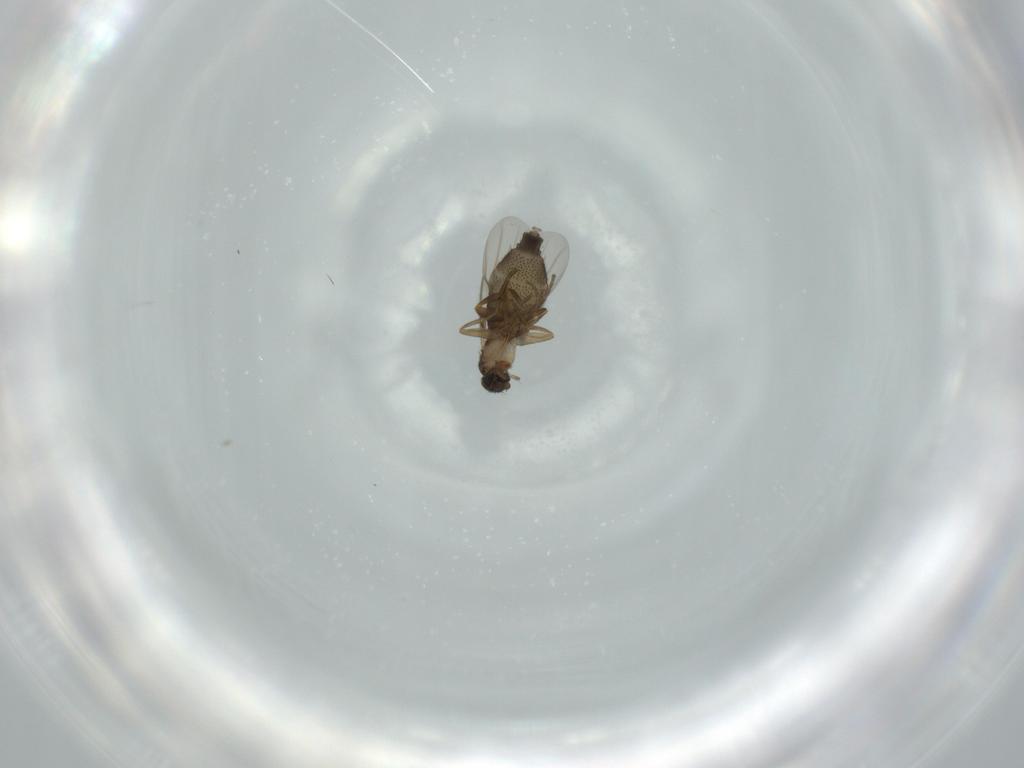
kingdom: Animalia
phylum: Arthropoda
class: Insecta
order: Diptera
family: Phoridae
